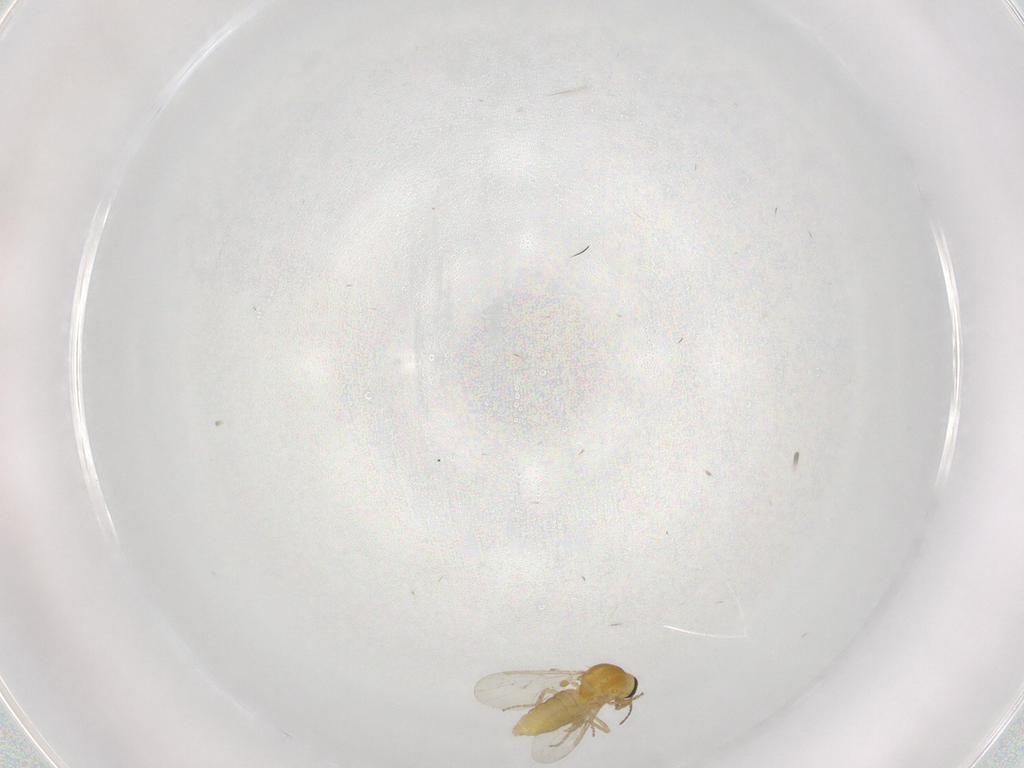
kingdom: Animalia
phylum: Arthropoda
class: Insecta
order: Diptera
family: Ceratopogonidae
